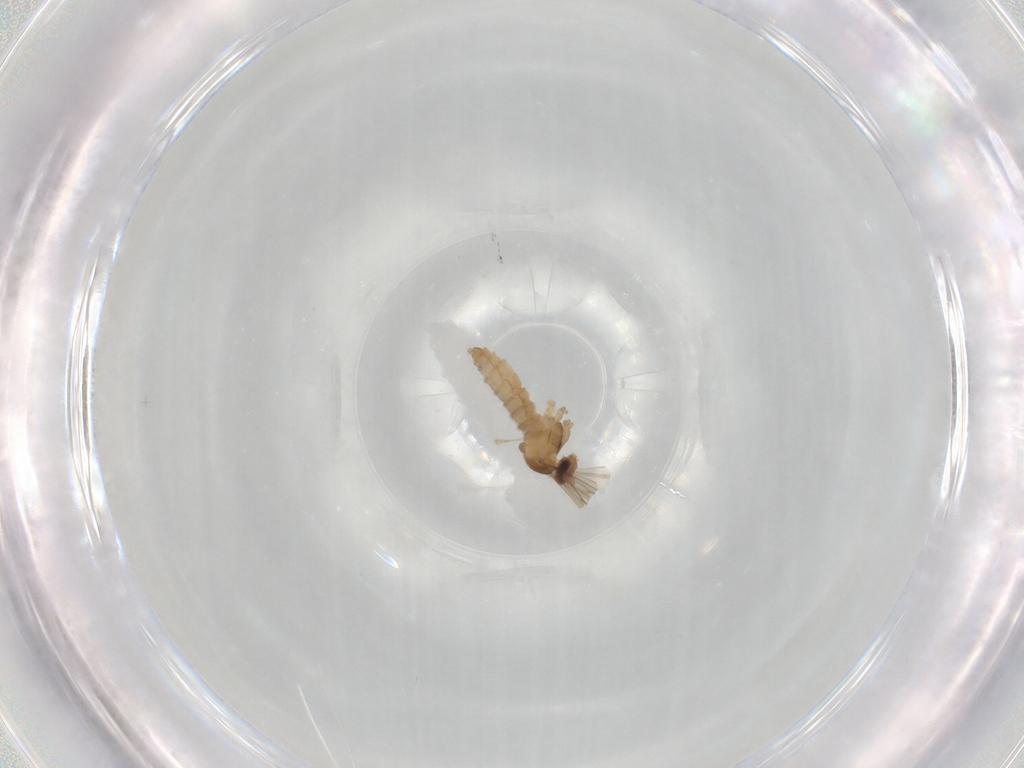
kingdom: Animalia
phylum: Arthropoda
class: Insecta
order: Diptera
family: Cecidomyiidae
